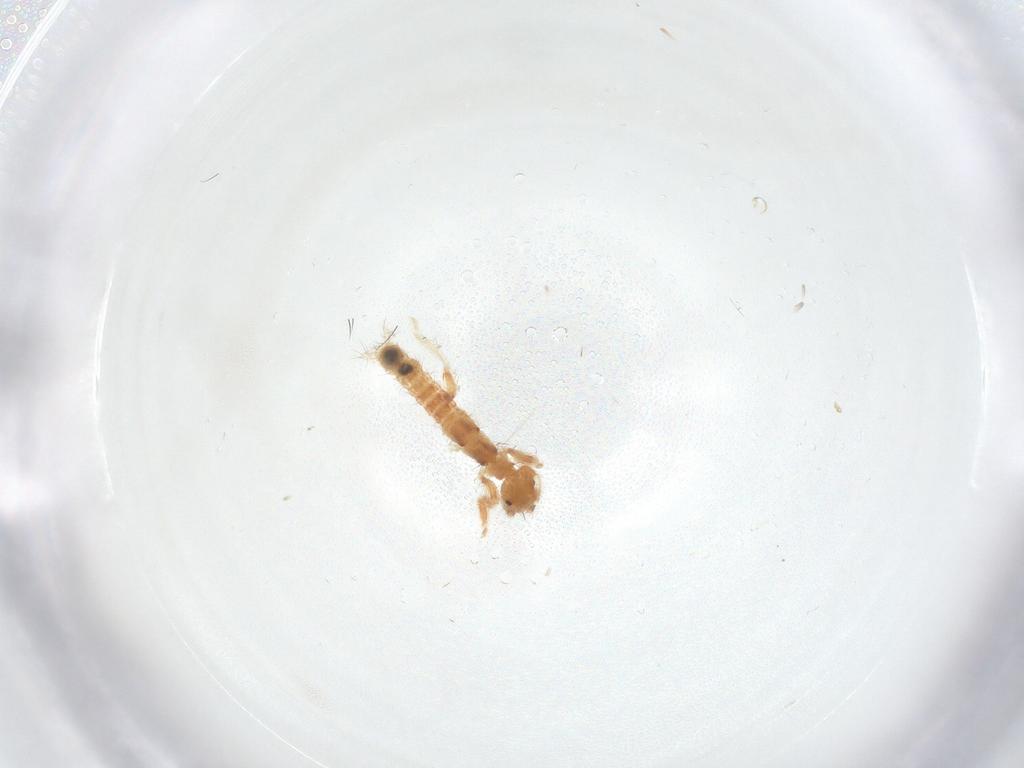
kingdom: Animalia
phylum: Arthropoda
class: Insecta
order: Embioptera
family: Anisembiidae
